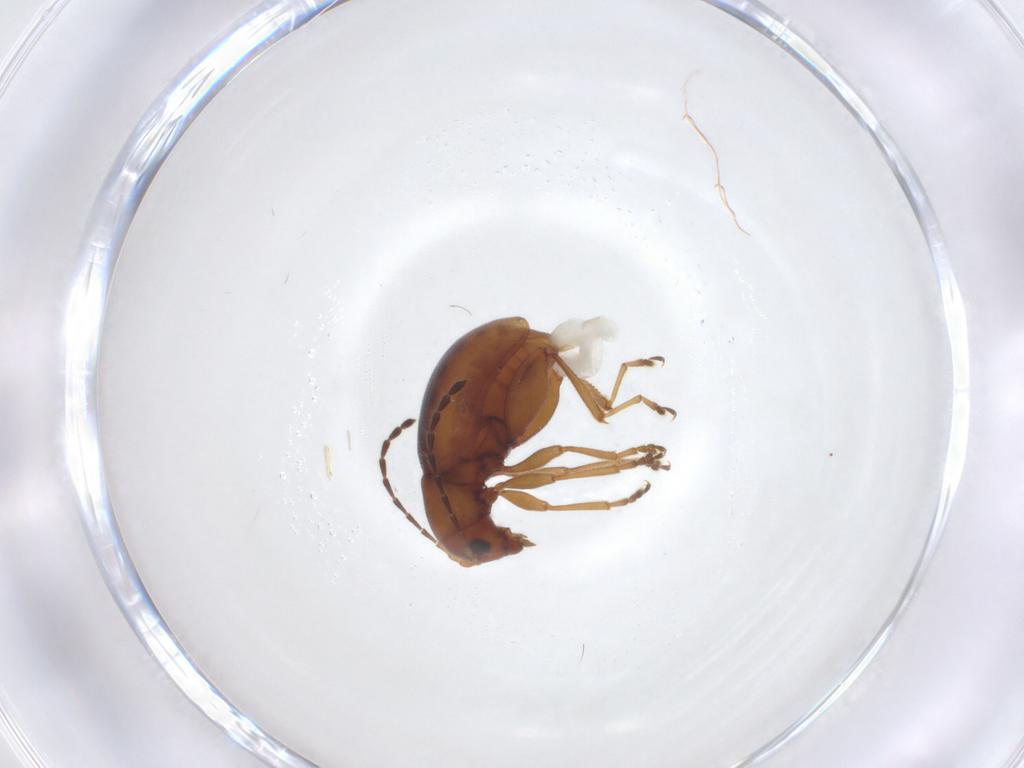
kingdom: Animalia
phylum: Arthropoda
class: Insecta
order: Coleoptera
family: Chrysomelidae
